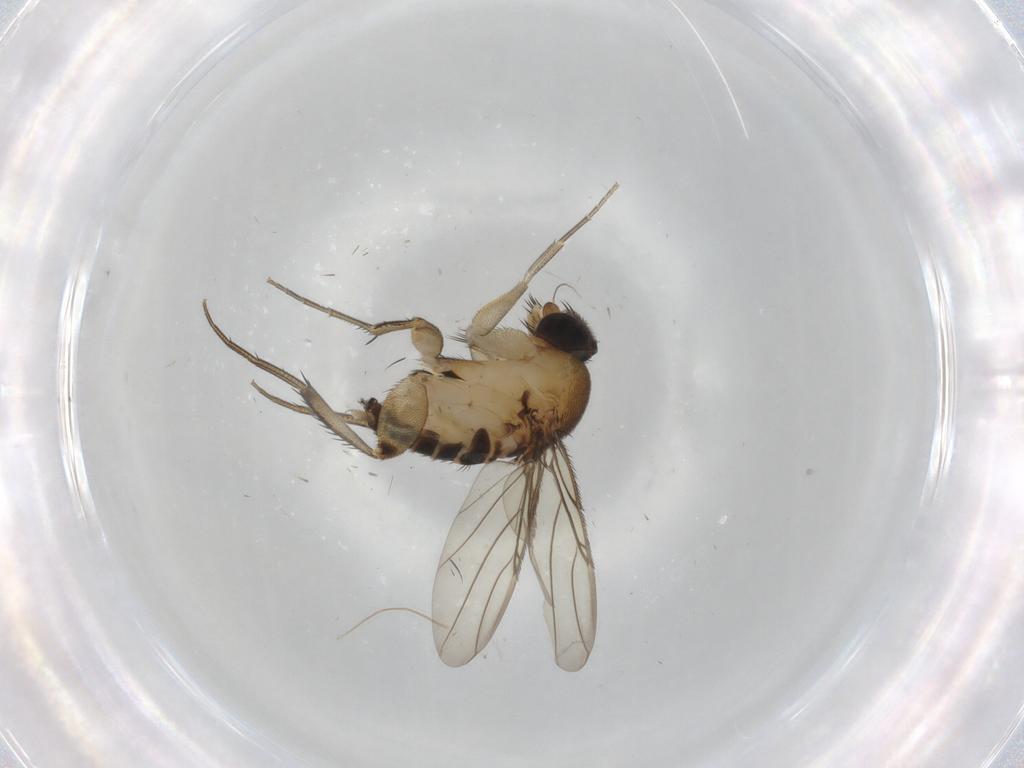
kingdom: Animalia
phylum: Arthropoda
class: Insecta
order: Diptera
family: Phoridae
